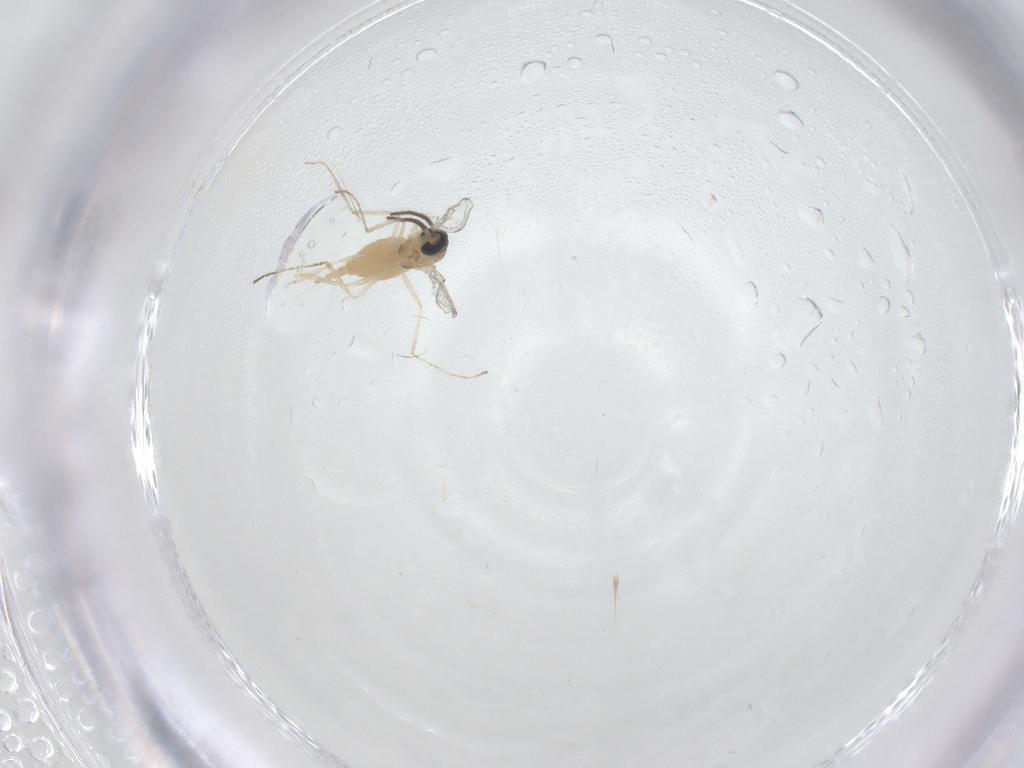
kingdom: Animalia
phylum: Arthropoda
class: Insecta
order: Diptera
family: Cecidomyiidae
